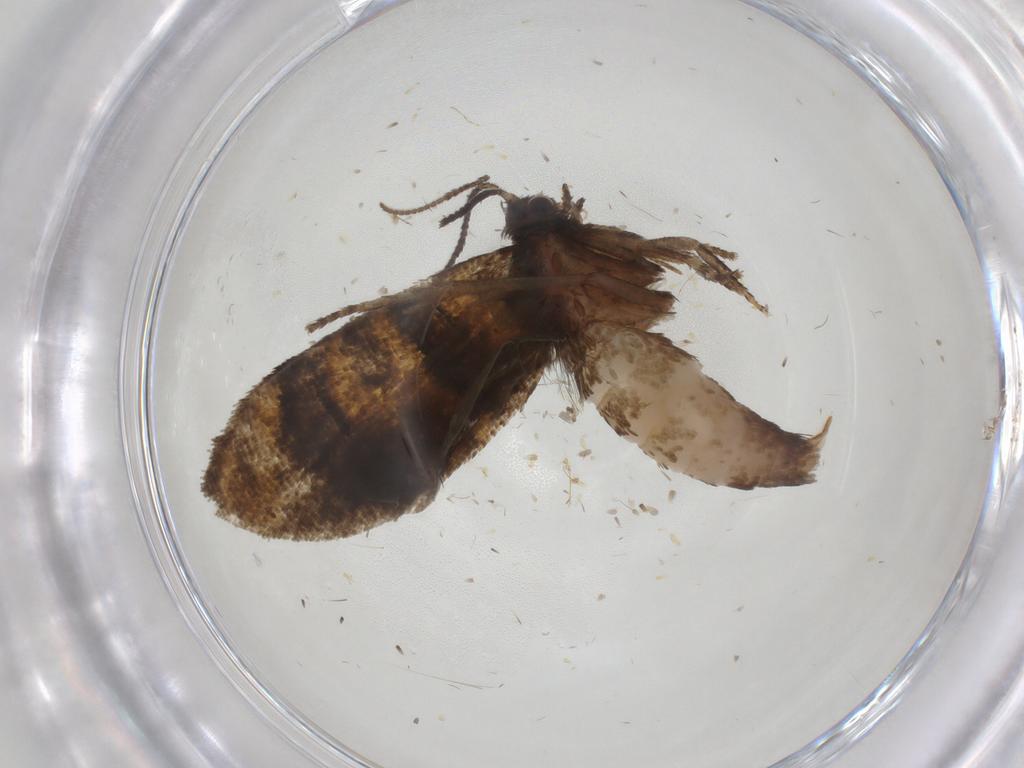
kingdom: Animalia
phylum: Arthropoda
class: Insecta
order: Lepidoptera
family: Tortricidae
